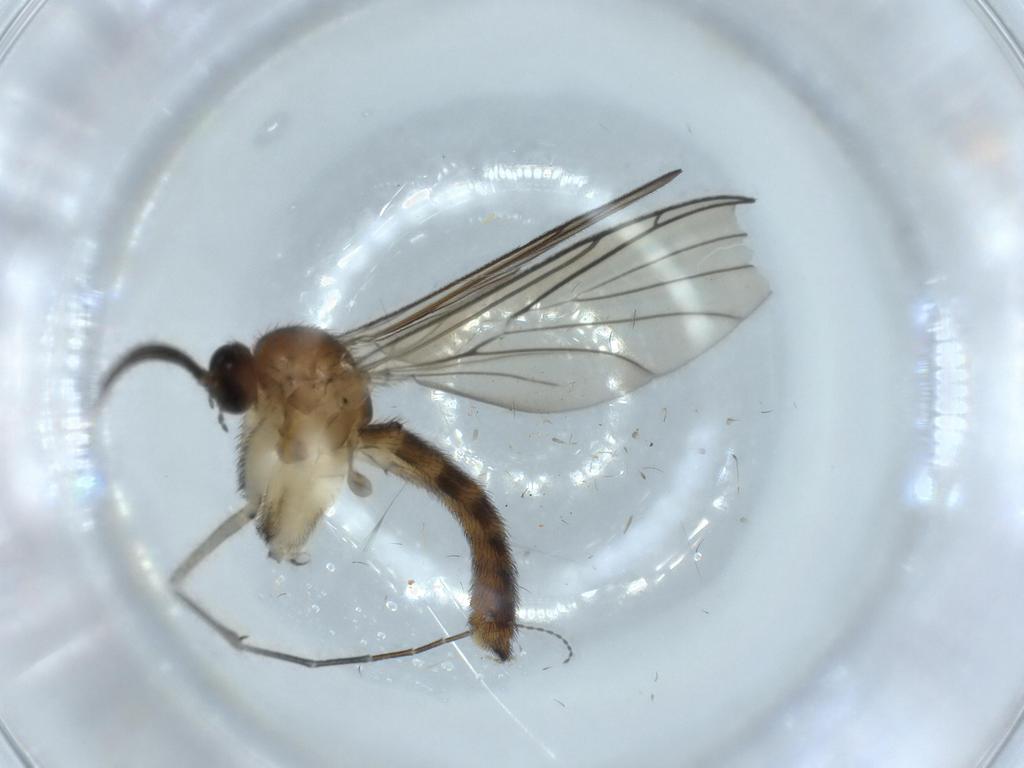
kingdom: Animalia
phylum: Arthropoda
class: Insecta
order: Diptera
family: Keroplatidae
